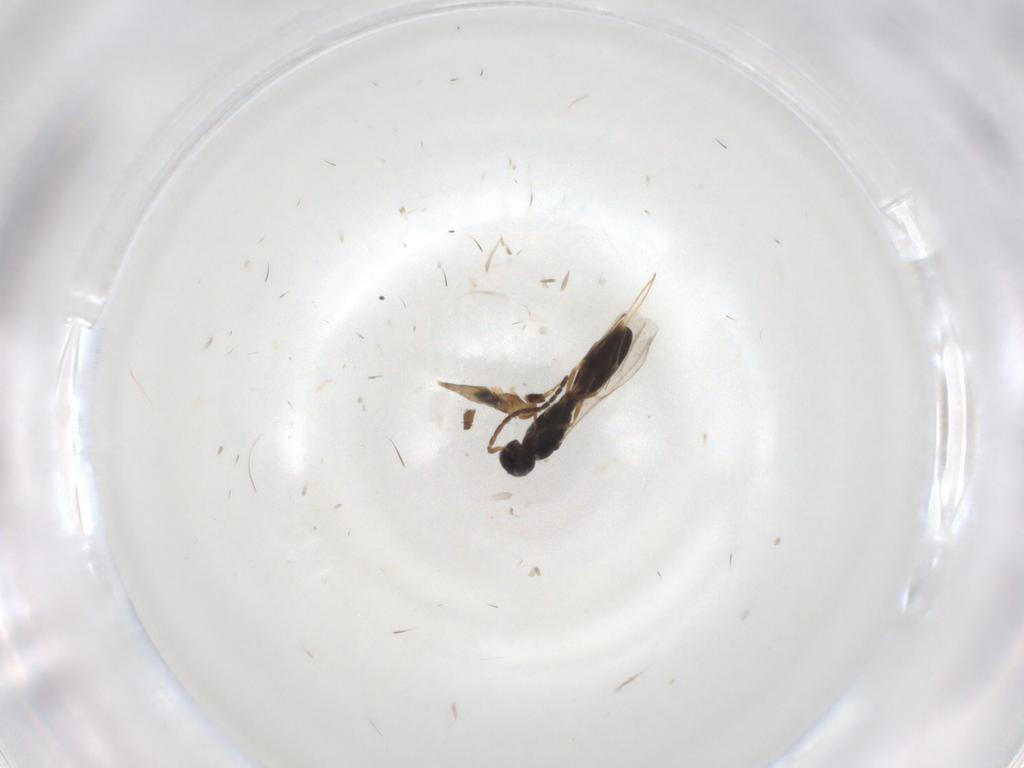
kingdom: Animalia
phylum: Arthropoda
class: Insecta
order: Diptera
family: Cecidomyiidae
